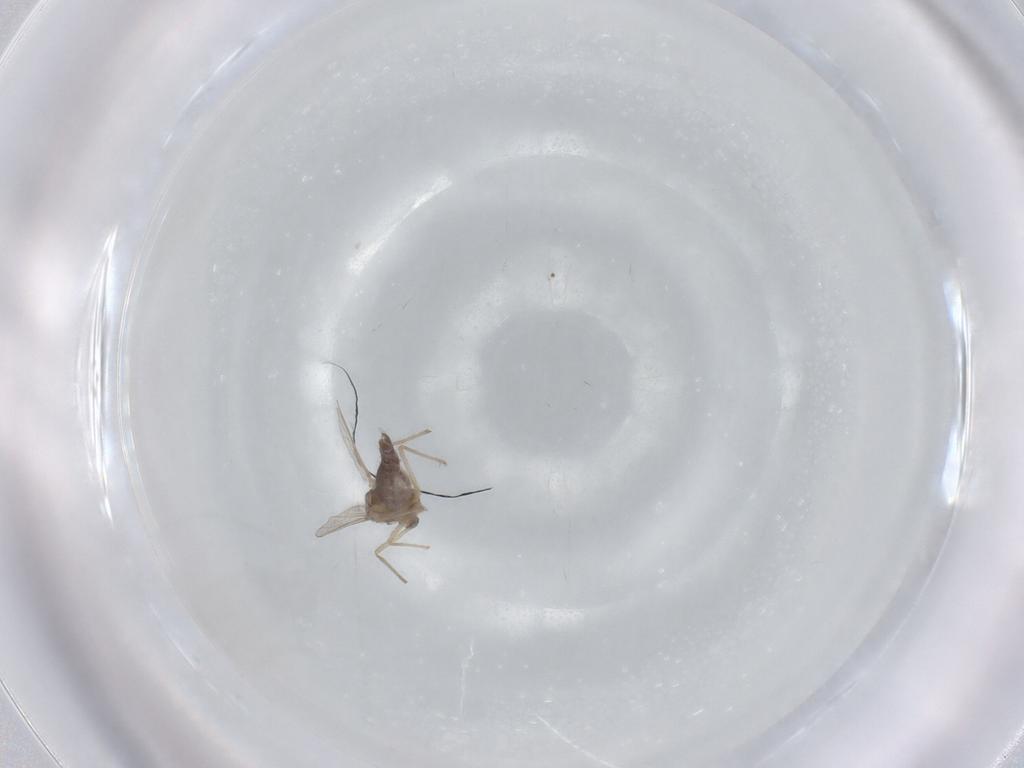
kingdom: Animalia
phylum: Arthropoda
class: Insecta
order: Diptera
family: Chironomidae
